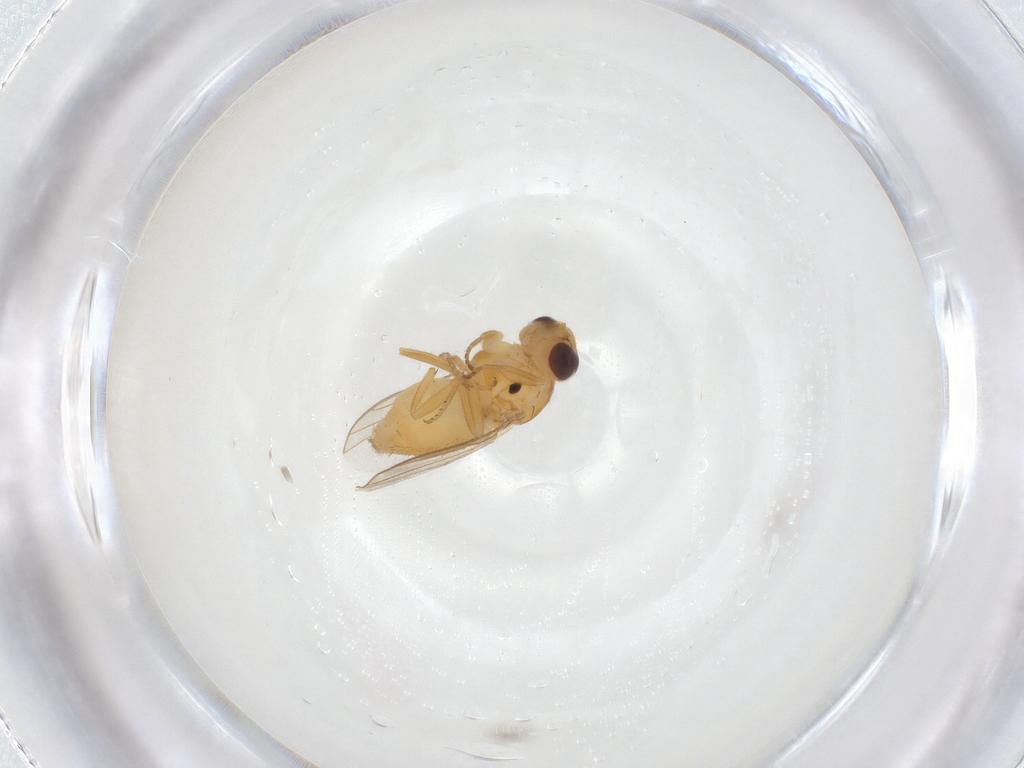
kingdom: Animalia
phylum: Arthropoda
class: Insecta
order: Diptera
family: Chloropidae
